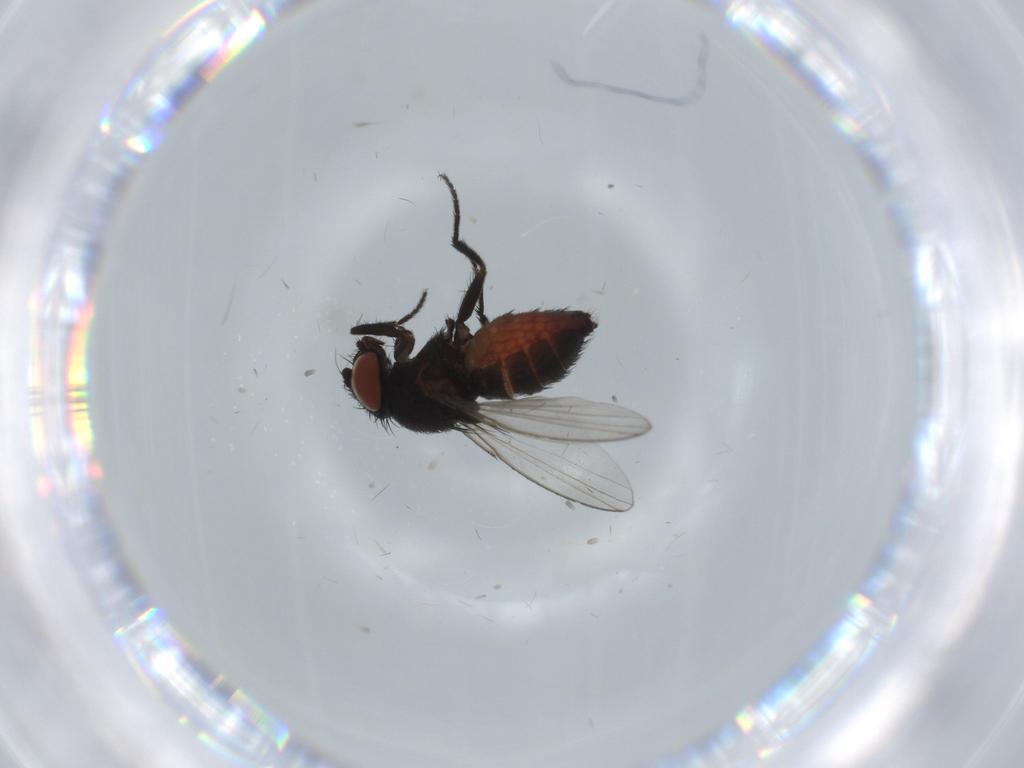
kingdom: Animalia
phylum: Arthropoda
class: Insecta
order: Diptera
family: Milichiidae
